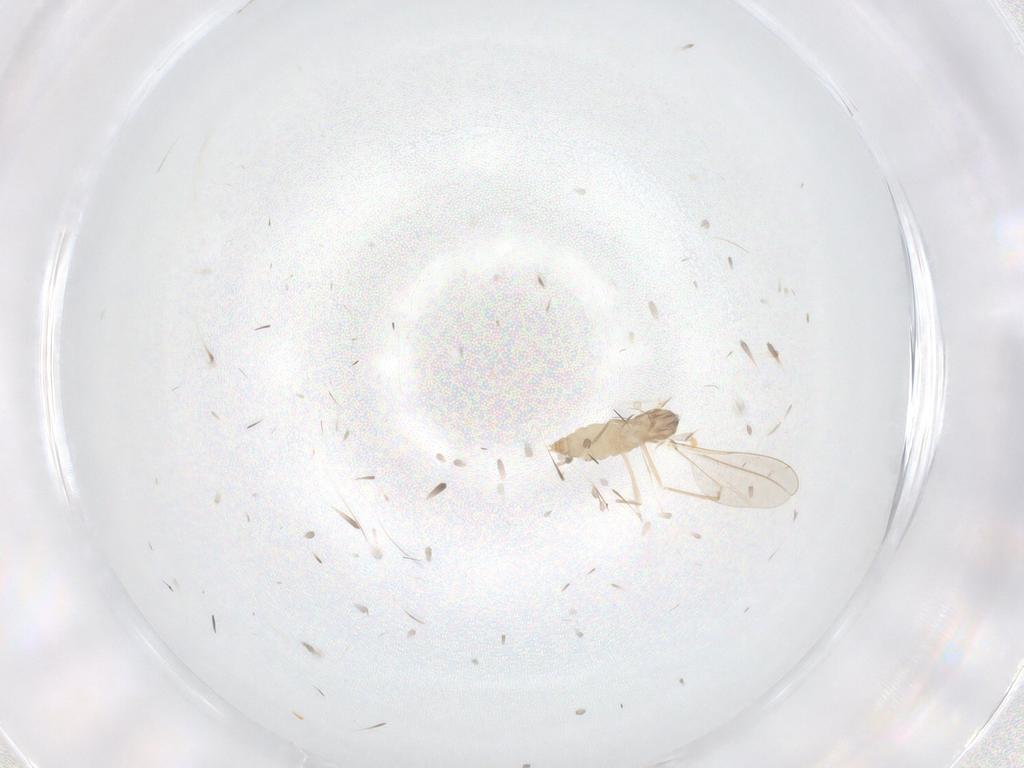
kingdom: Animalia
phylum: Arthropoda
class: Insecta
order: Diptera
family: Cecidomyiidae
